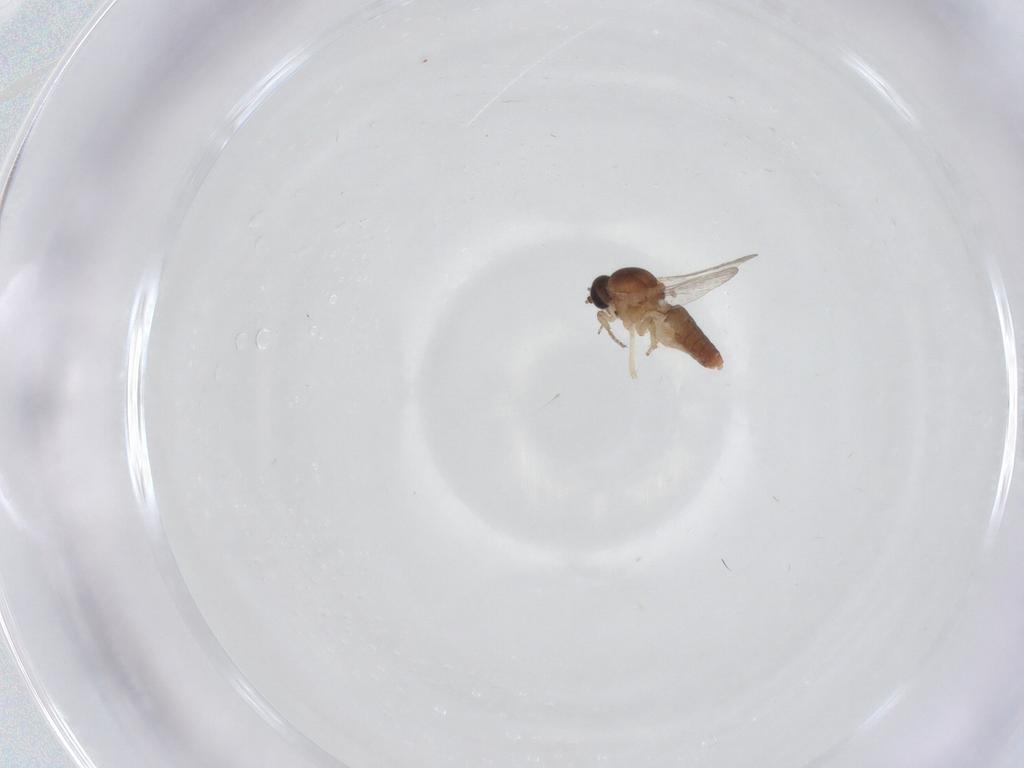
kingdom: Animalia
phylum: Arthropoda
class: Insecta
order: Diptera
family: Ceratopogonidae
